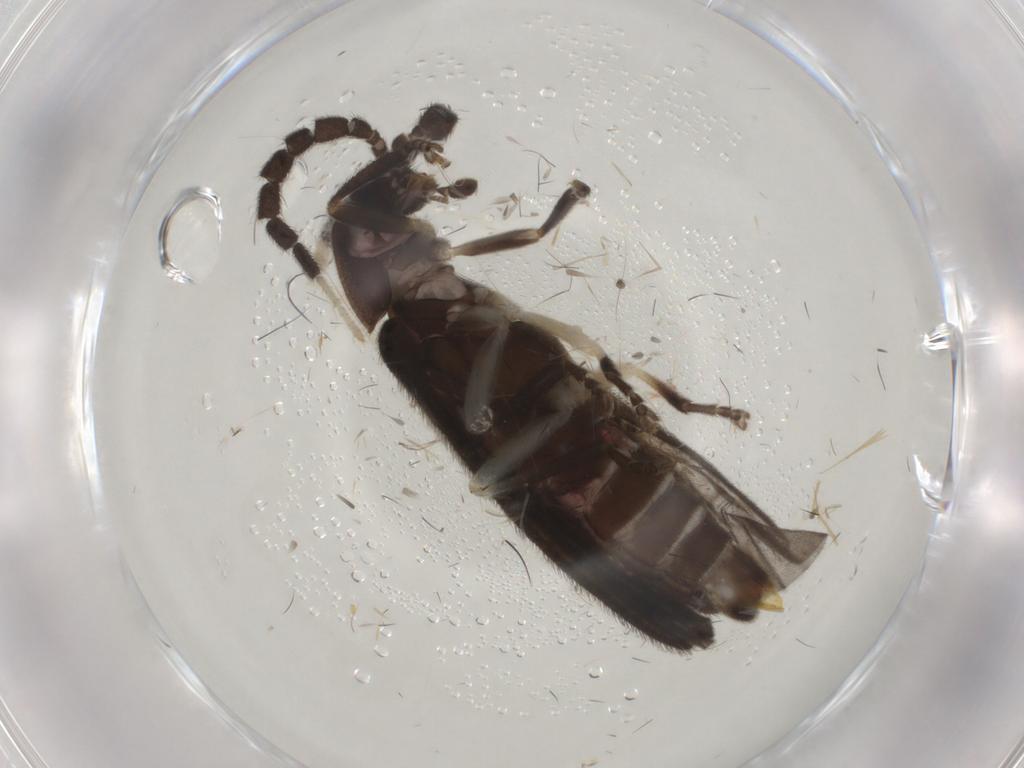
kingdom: Animalia
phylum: Arthropoda
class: Insecta
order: Coleoptera
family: Lampyridae
